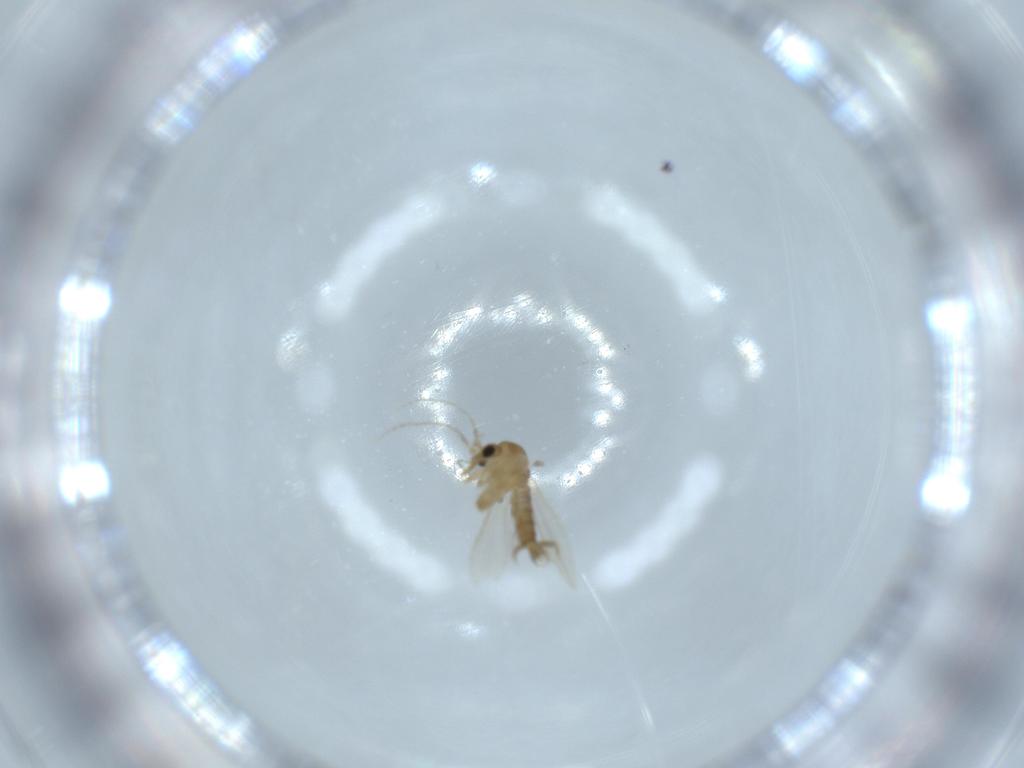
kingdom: Animalia
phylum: Arthropoda
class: Insecta
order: Diptera
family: Psychodidae
